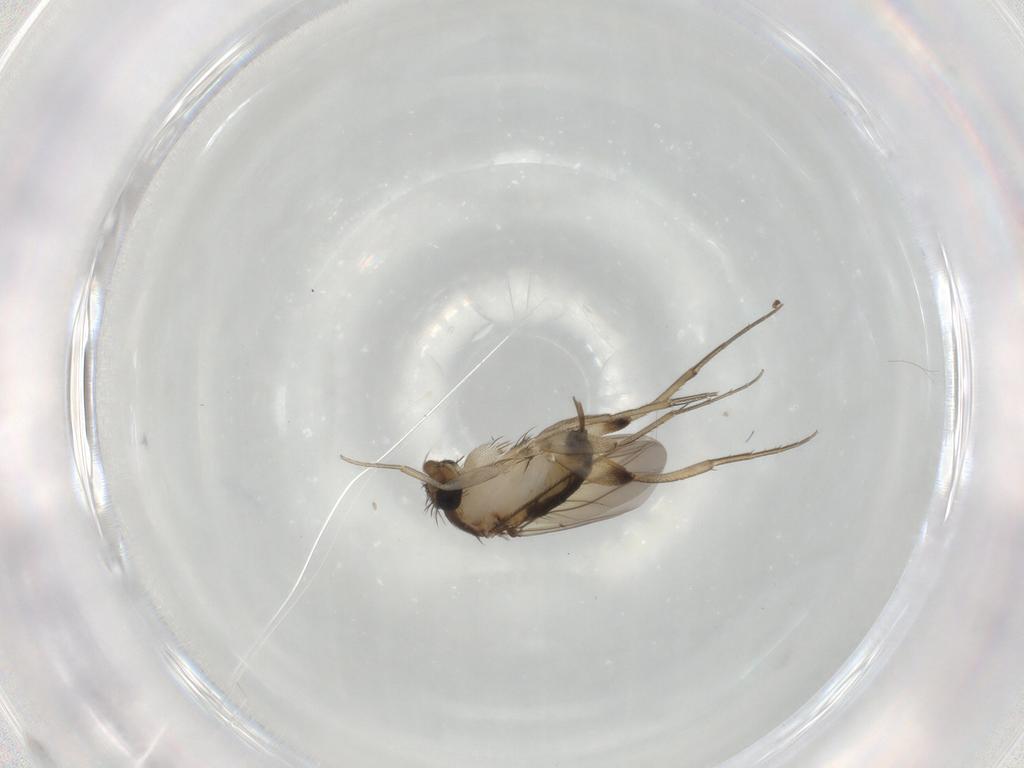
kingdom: Animalia
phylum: Arthropoda
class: Insecta
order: Diptera
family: Phoridae
